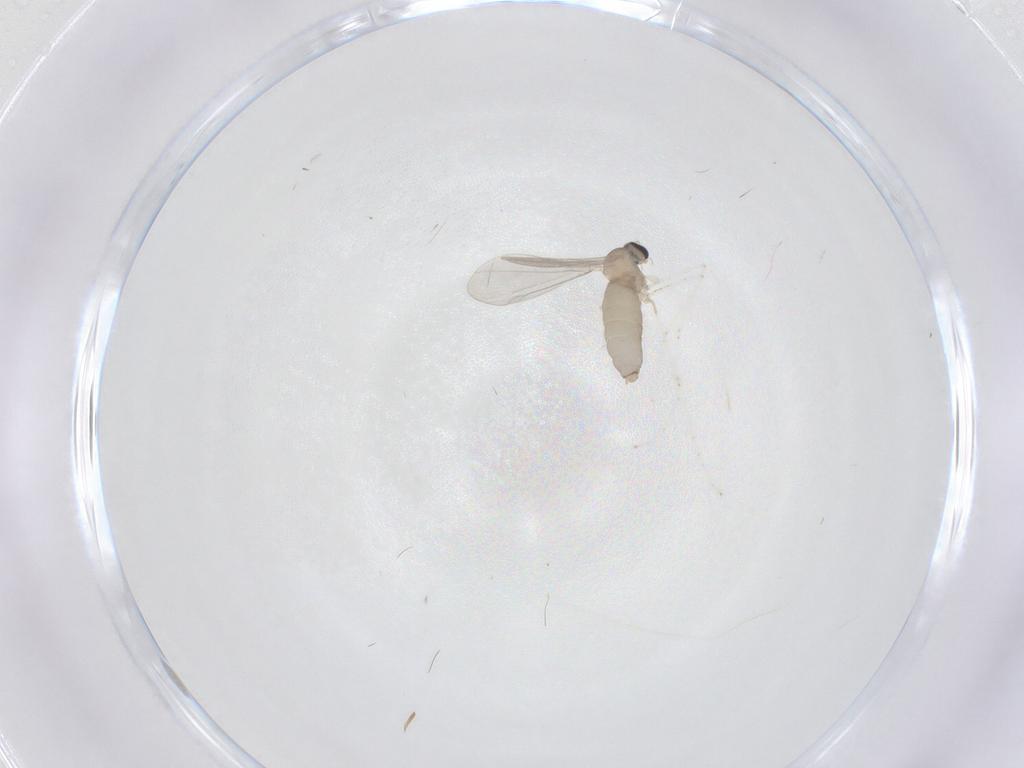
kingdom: Animalia
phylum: Arthropoda
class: Insecta
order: Diptera
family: Cecidomyiidae
